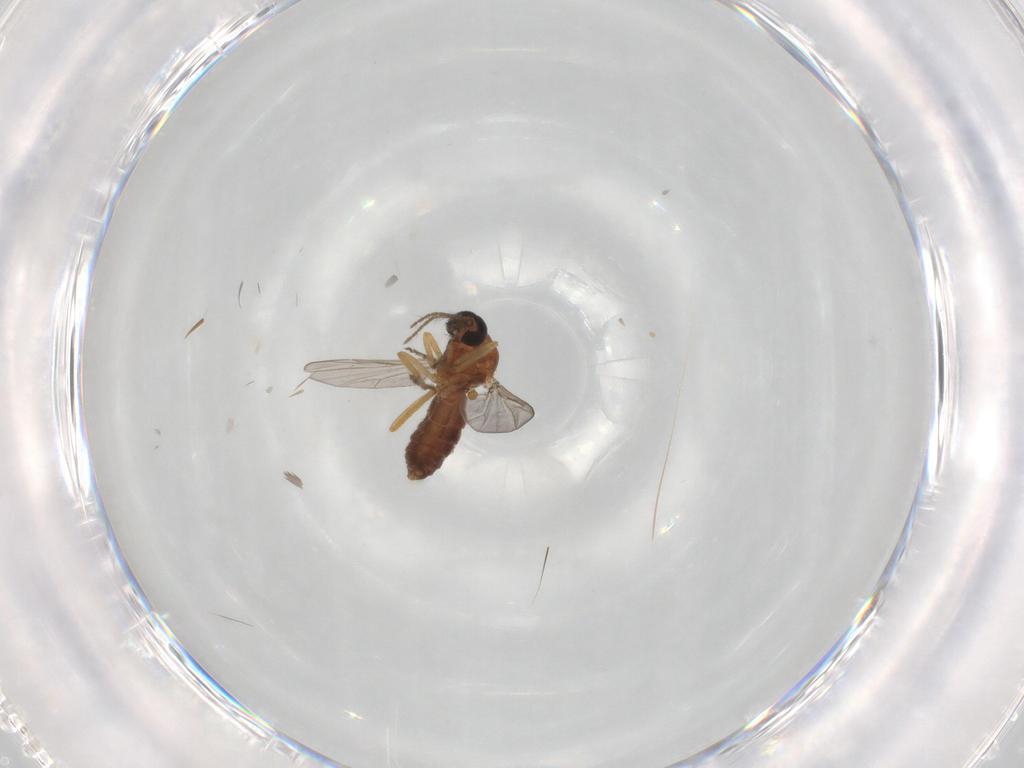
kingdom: Animalia
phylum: Arthropoda
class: Insecta
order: Diptera
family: Ceratopogonidae
